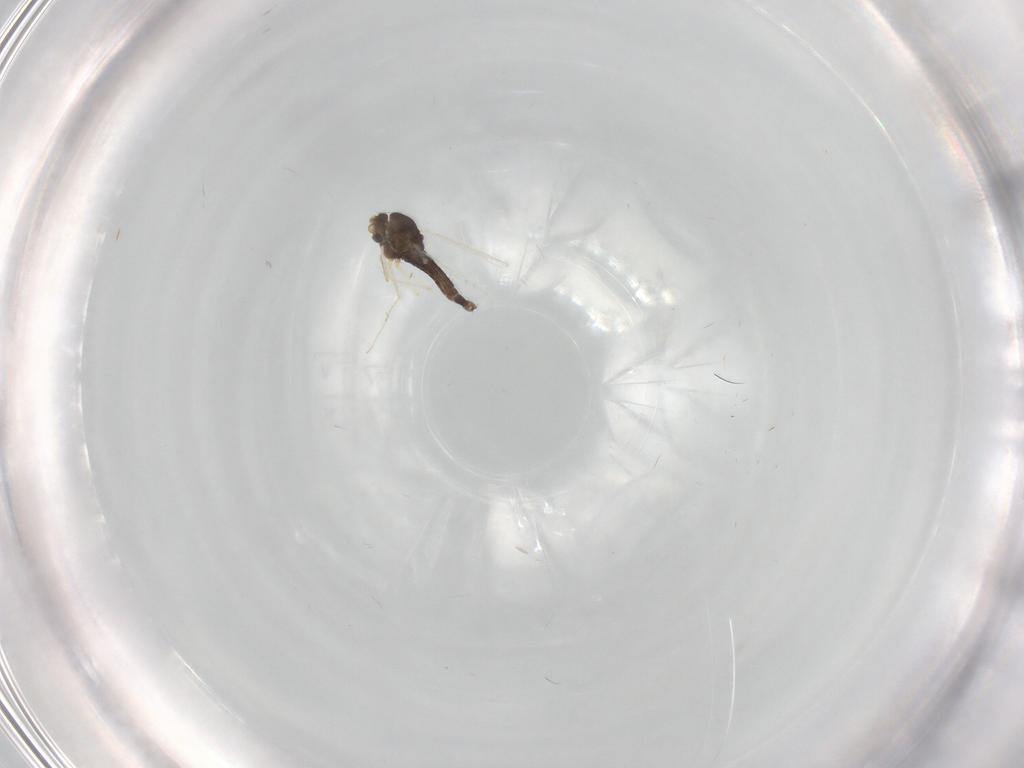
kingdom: Animalia
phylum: Arthropoda
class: Insecta
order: Diptera
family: Chironomidae
